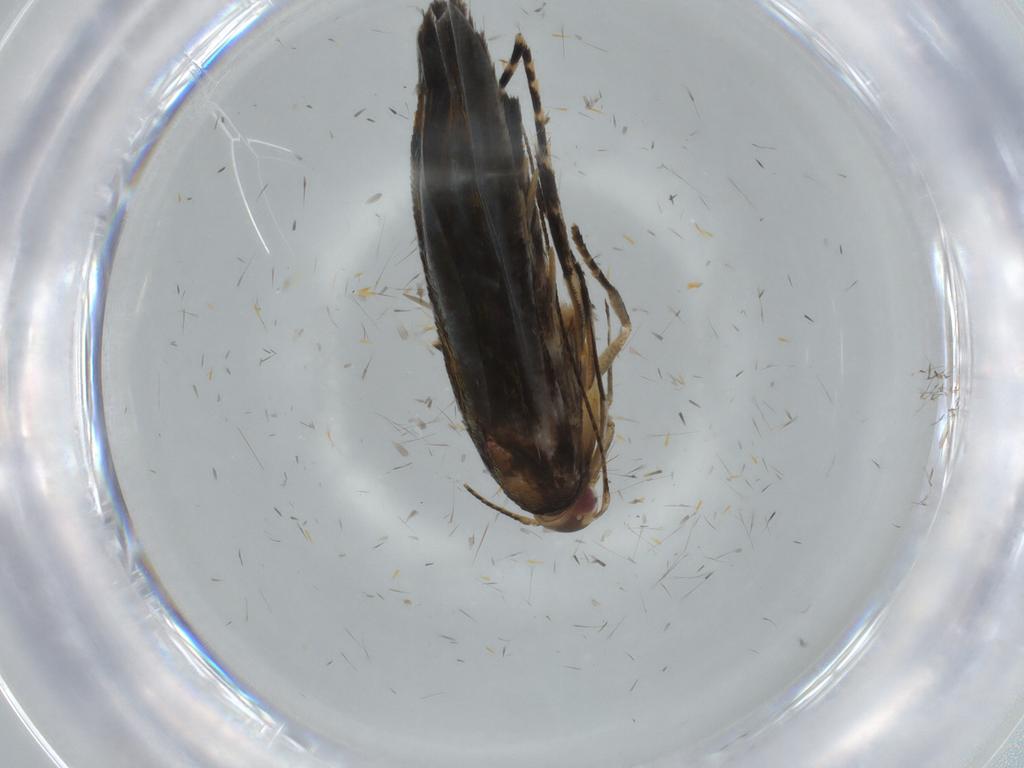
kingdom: Animalia
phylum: Arthropoda
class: Insecta
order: Lepidoptera
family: Gelechiidae
